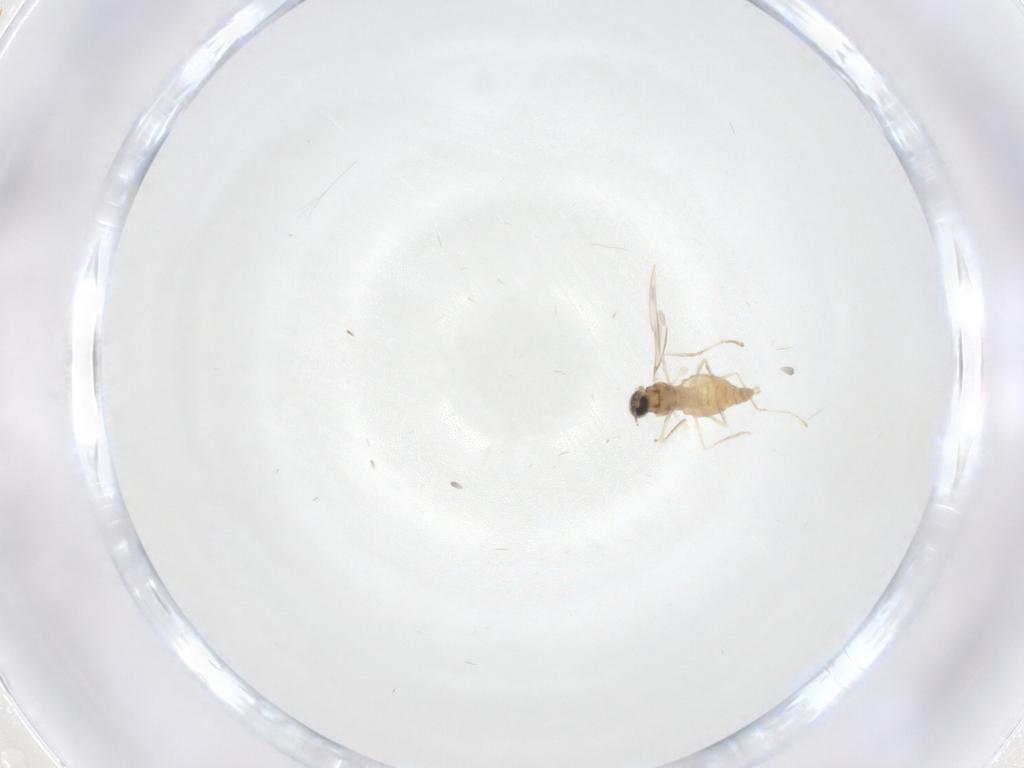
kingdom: Animalia
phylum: Arthropoda
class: Insecta
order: Diptera
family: Cecidomyiidae
